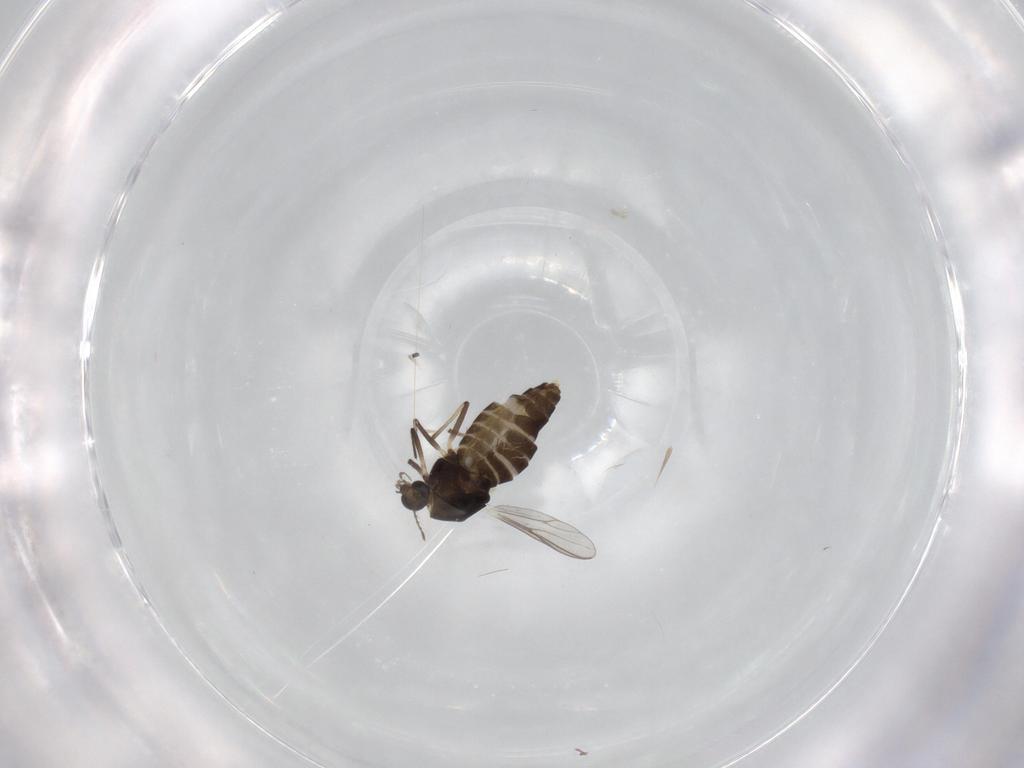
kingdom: Animalia
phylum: Arthropoda
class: Insecta
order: Diptera
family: Chironomidae
